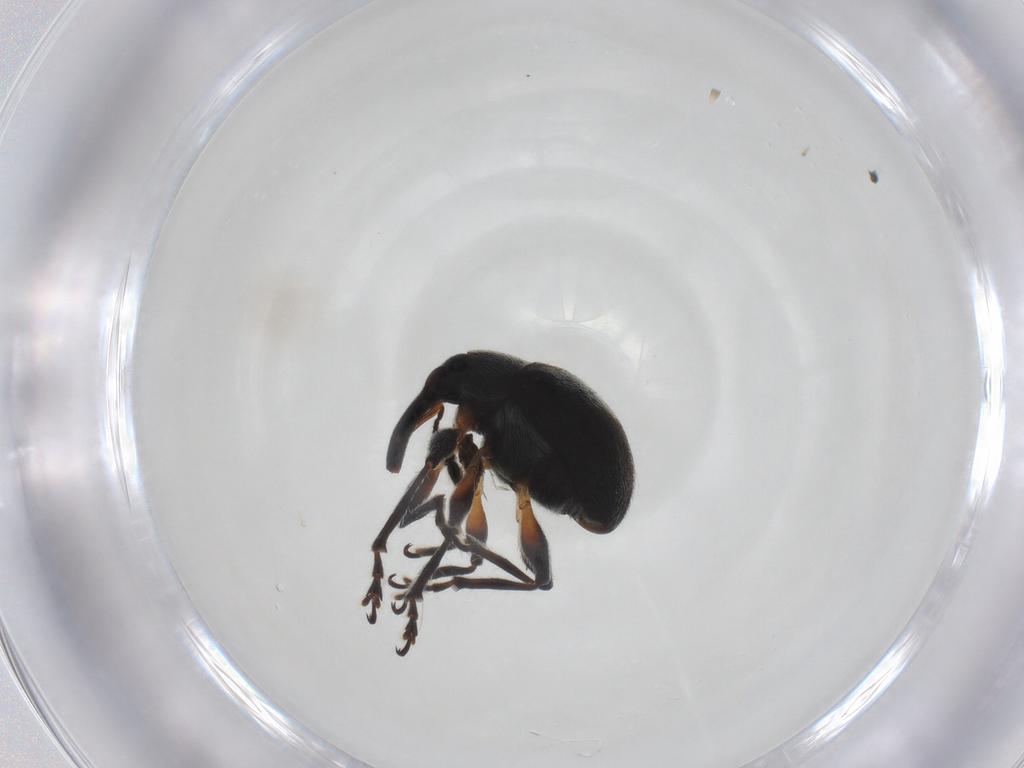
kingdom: Animalia
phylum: Arthropoda
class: Insecta
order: Coleoptera
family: Brentidae
